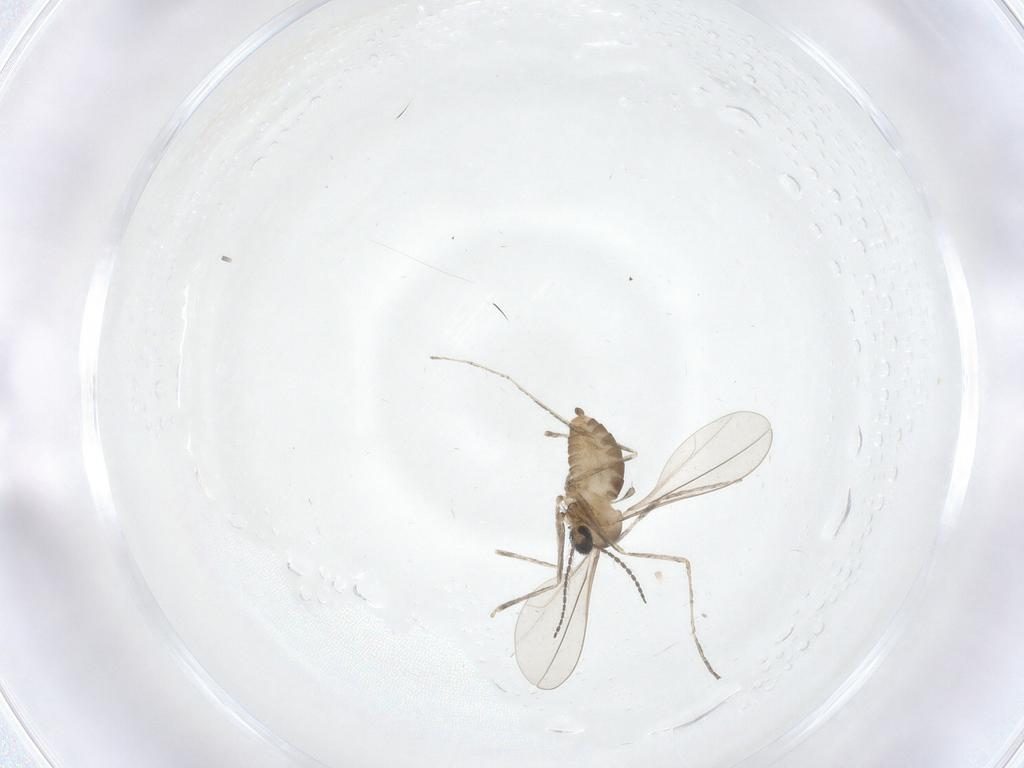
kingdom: Animalia
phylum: Arthropoda
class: Insecta
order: Diptera
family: Cecidomyiidae
